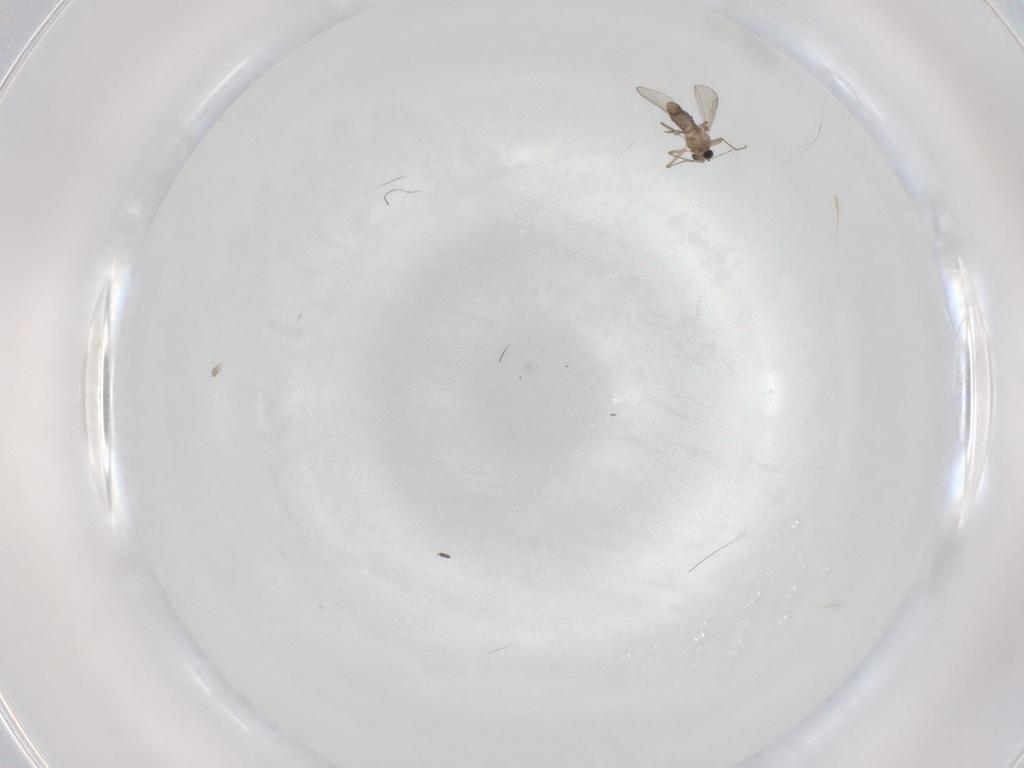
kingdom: Animalia
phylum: Arthropoda
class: Insecta
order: Diptera
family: Chironomidae
